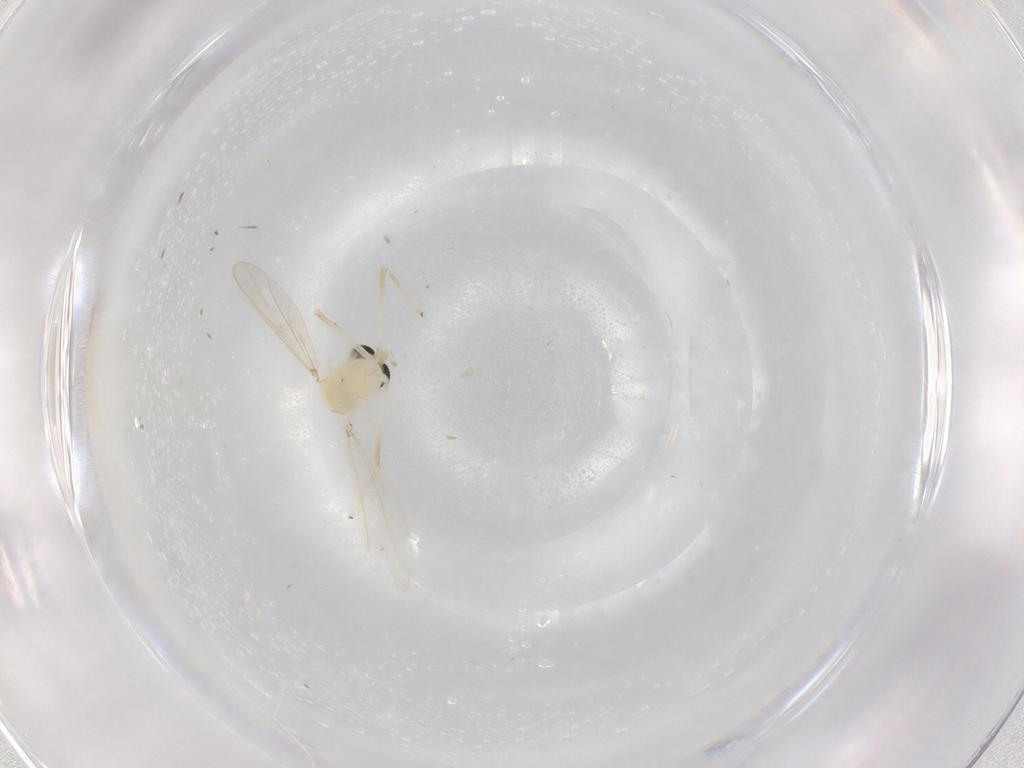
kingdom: Animalia
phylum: Arthropoda
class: Insecta
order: Diptera
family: Chironomidae
